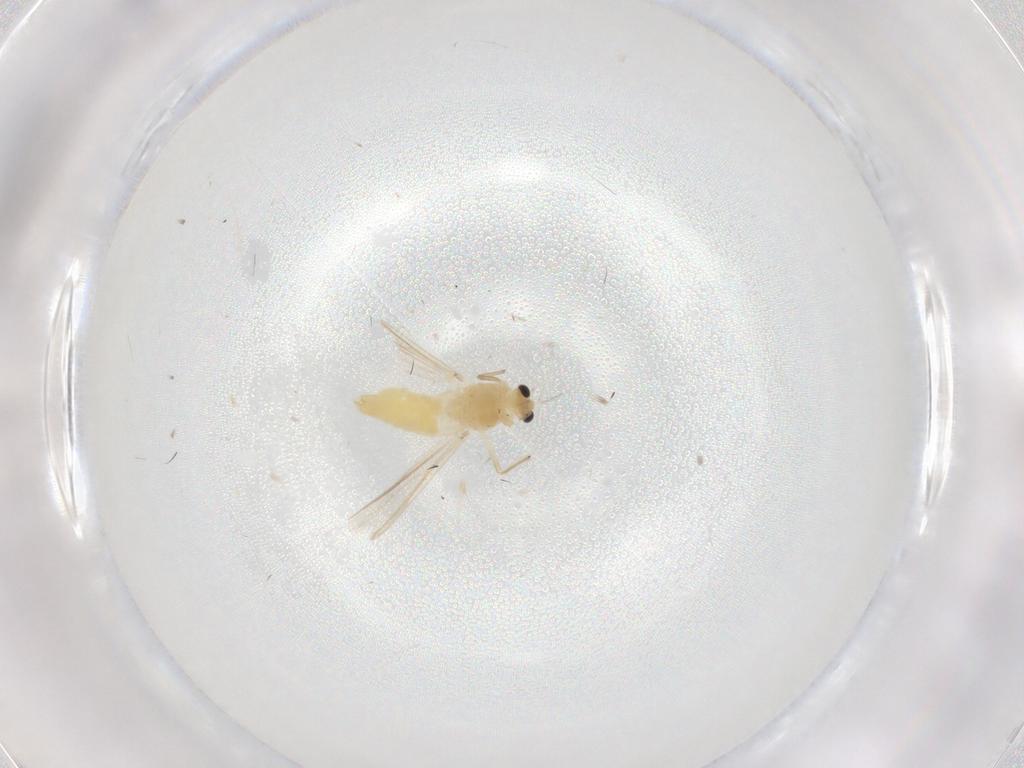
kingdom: Animalia
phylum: Arthropoda
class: Insecta
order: Diptera
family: Chironomidae
